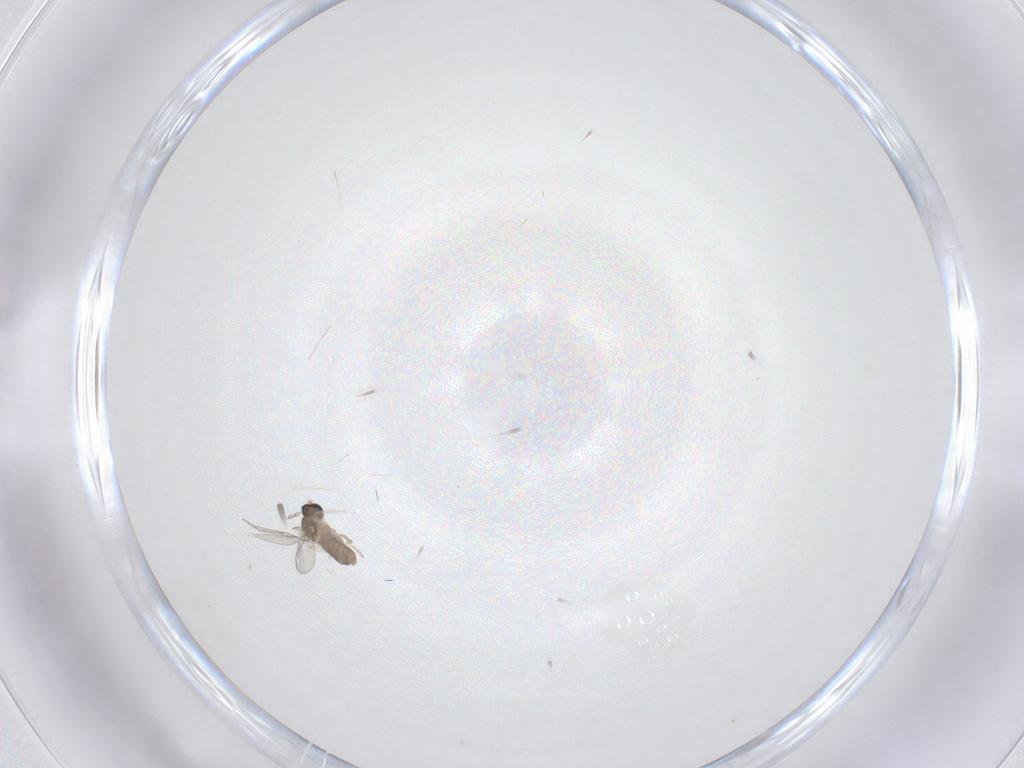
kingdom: Animalia
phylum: Arthropoda
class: Insecta
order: Diptera
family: Cecidomyiidae
